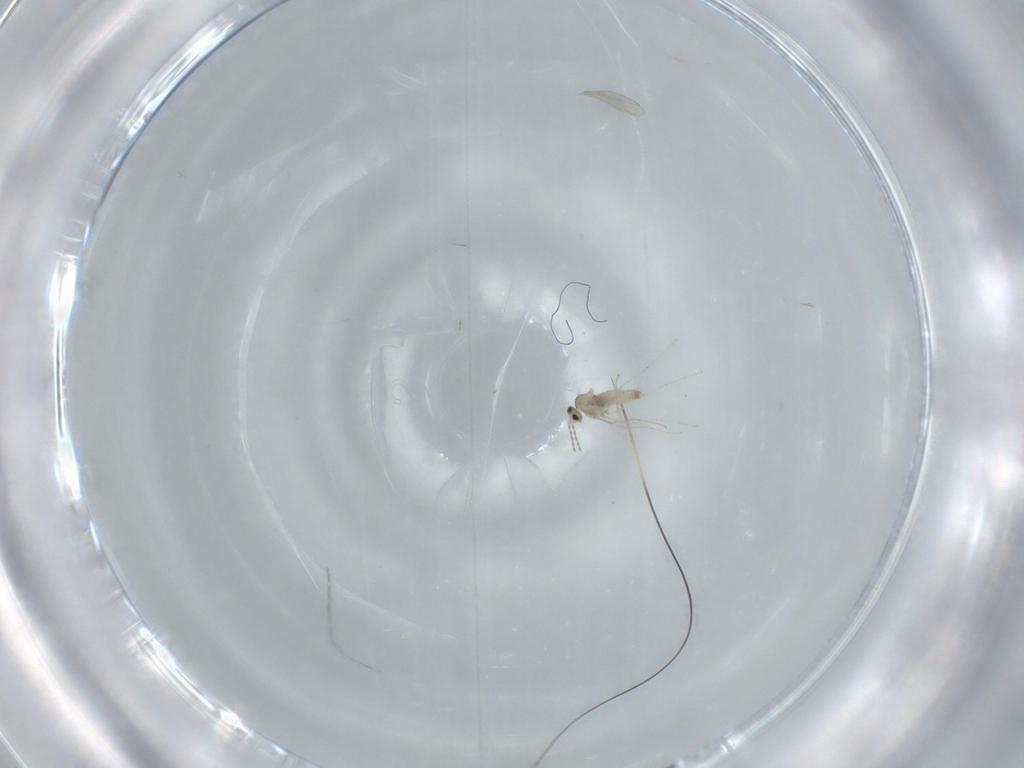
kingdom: Animalia
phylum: Arthropoda
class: Insecta
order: Diptera
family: Cecidomyiidae
